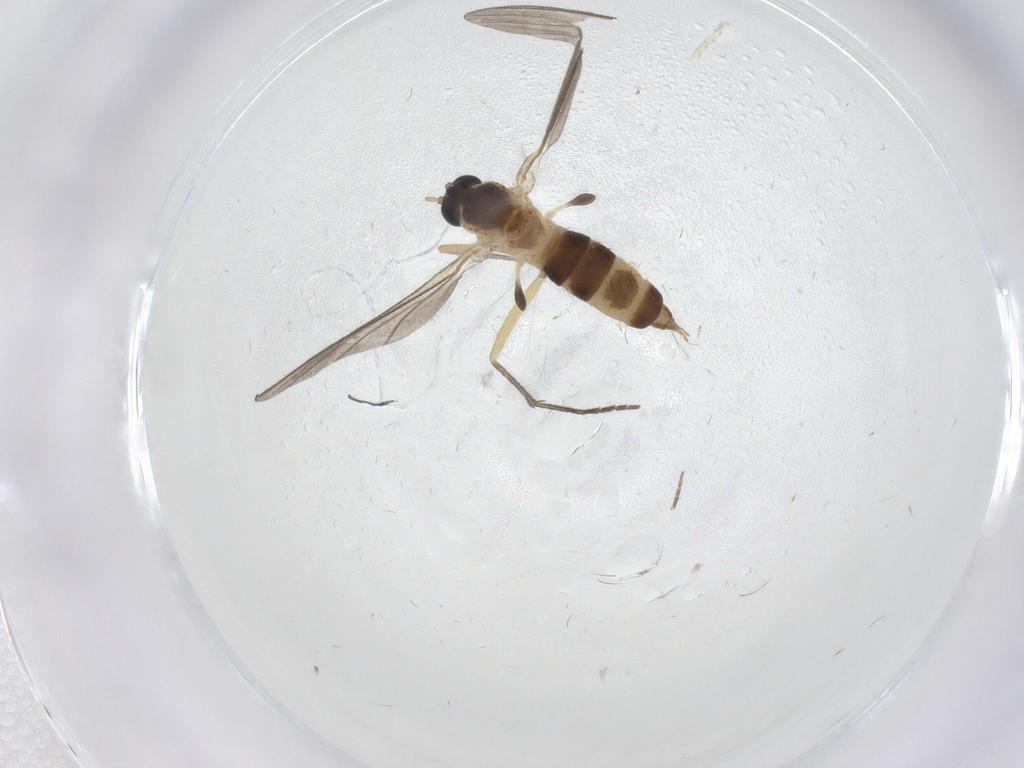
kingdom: Animalia
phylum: Arthropoda
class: Insecta
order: Diptera
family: Sciaridae
